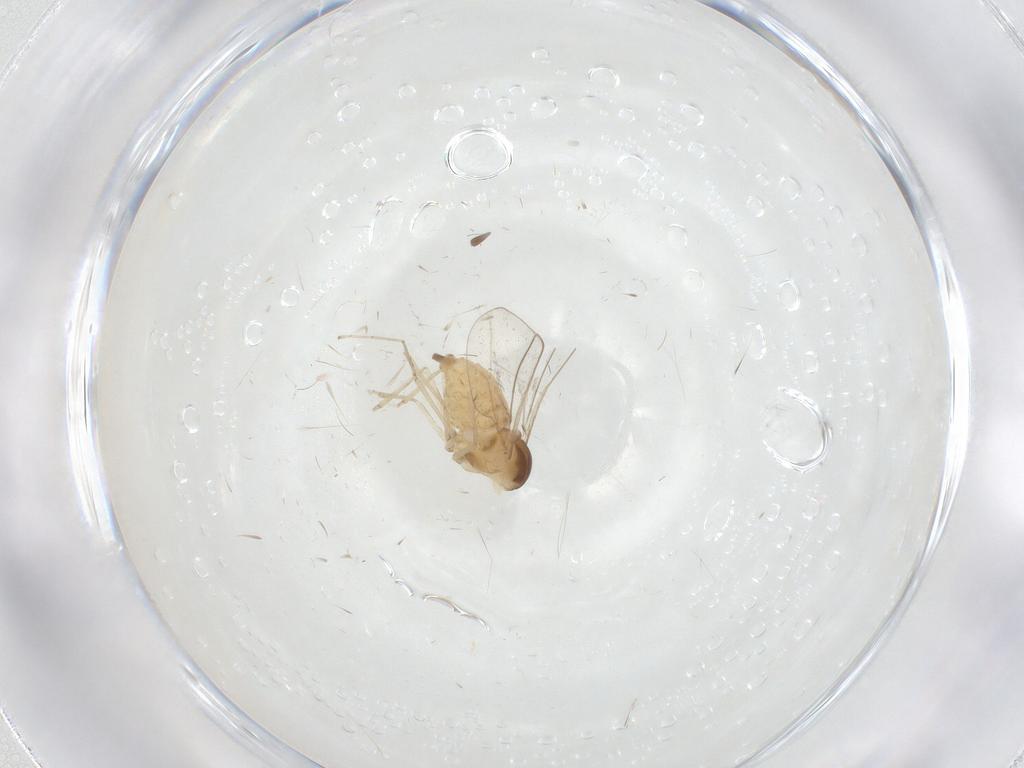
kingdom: Animalia
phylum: Arthropoda
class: Insecta
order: Diptera
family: Cecidomyiidae
